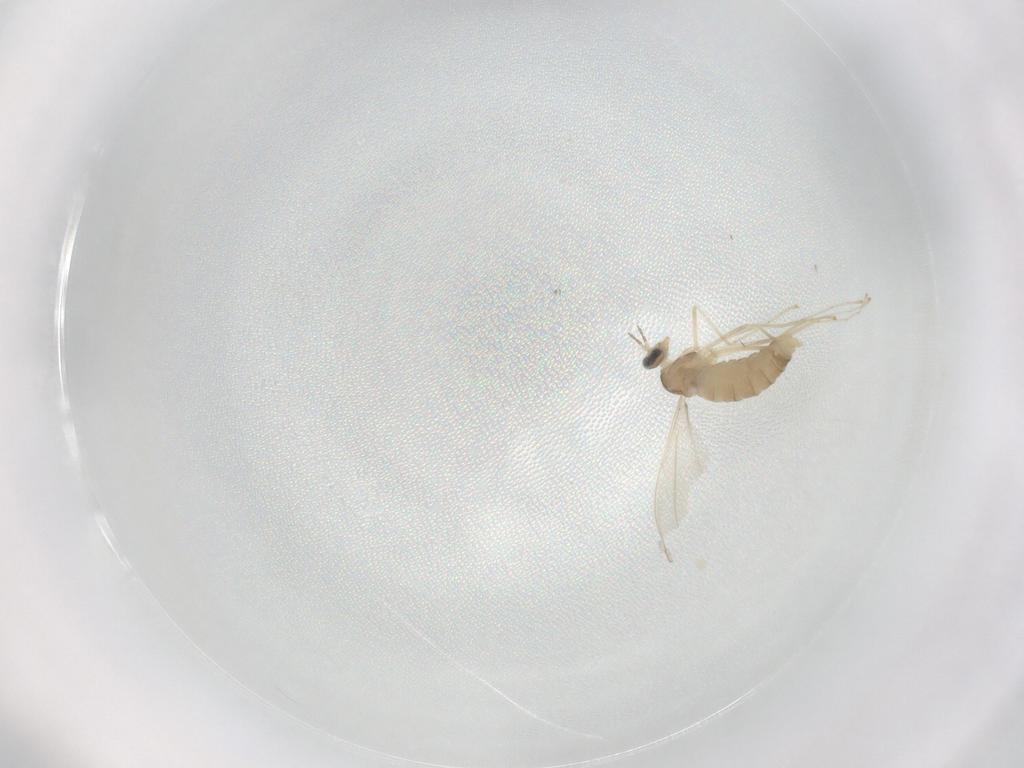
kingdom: Animalia
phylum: Arthropoda
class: Insecta
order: Diptera
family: Cecidomyiidae
